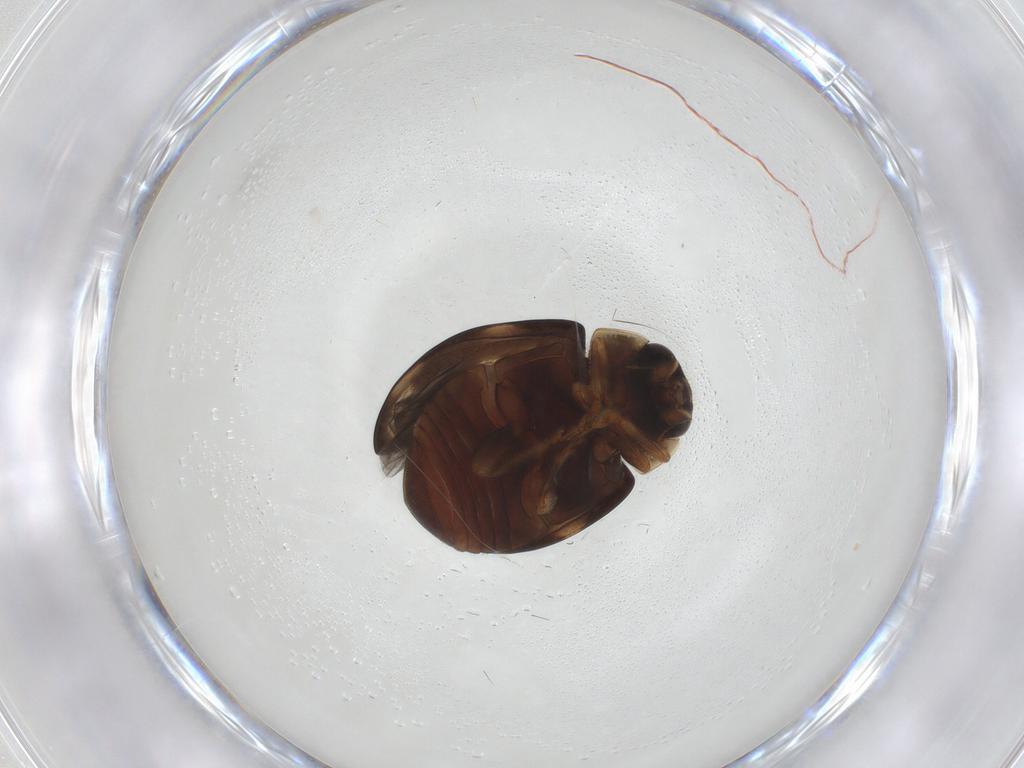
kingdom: Animalia
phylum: Arthropoda
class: Insecta
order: Coleoptera
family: Coccinellidae
